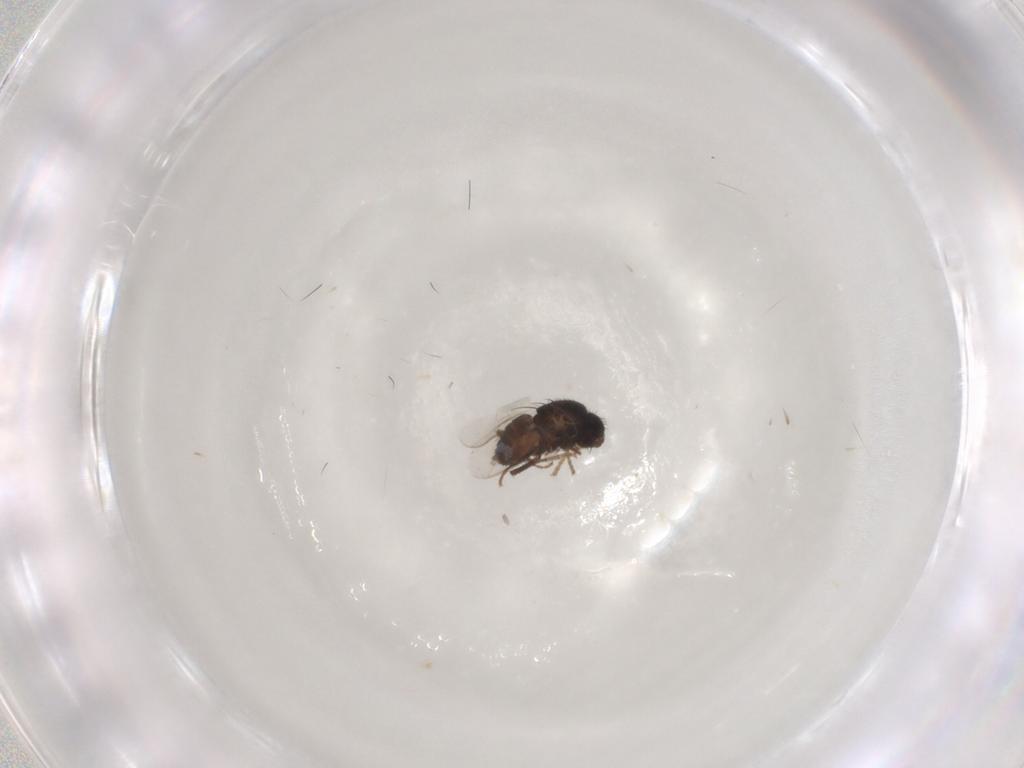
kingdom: Animalia
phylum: Arthropoda
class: Insecta
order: Diptera
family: Sphaeroceridae
